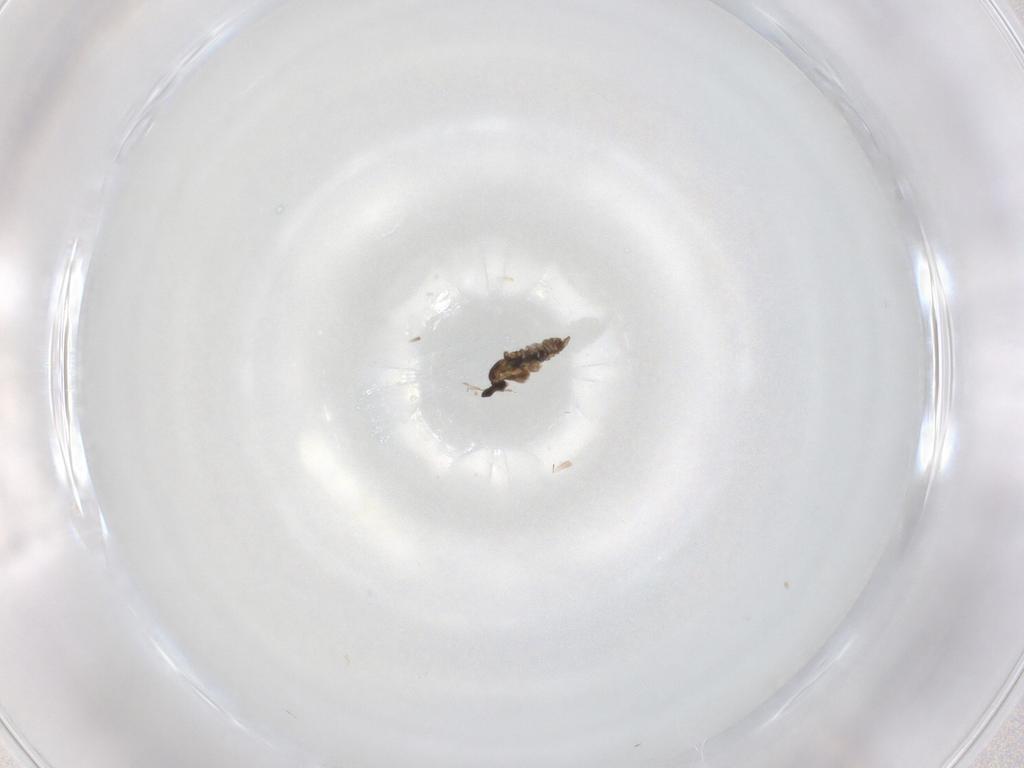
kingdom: Animalia
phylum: Arthropoda
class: Insecta
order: Diptera
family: Cecidomyiidae
